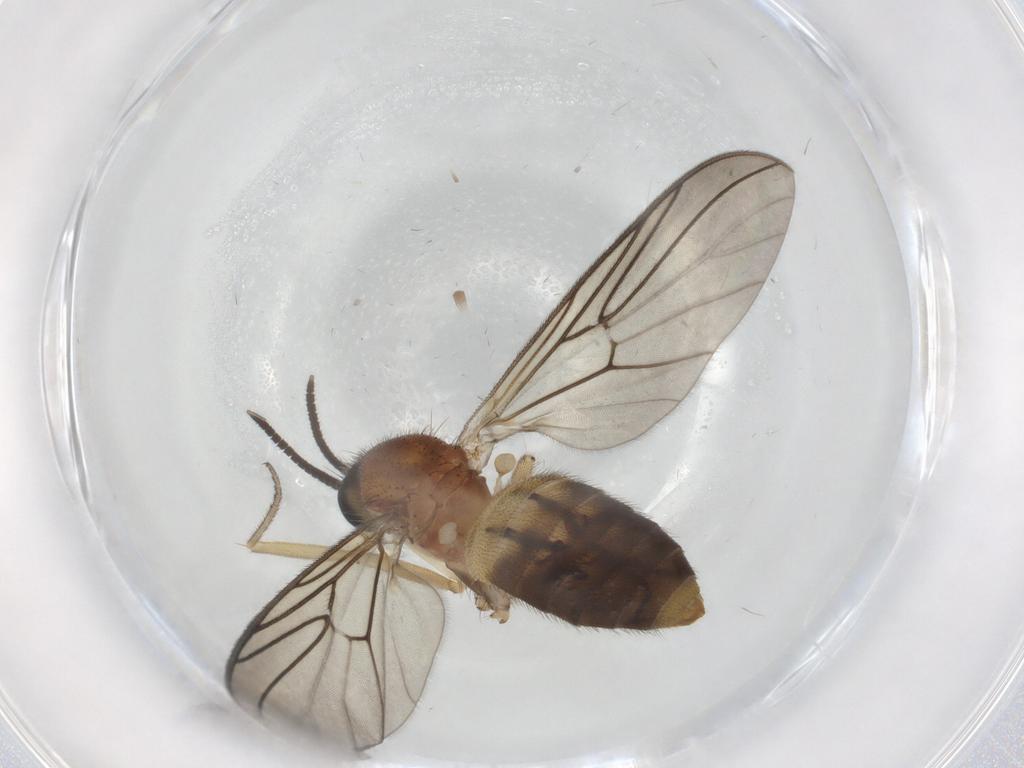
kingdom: Animalia
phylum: Arthropoda
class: Insecta
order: Diptera
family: Anisopodidae
